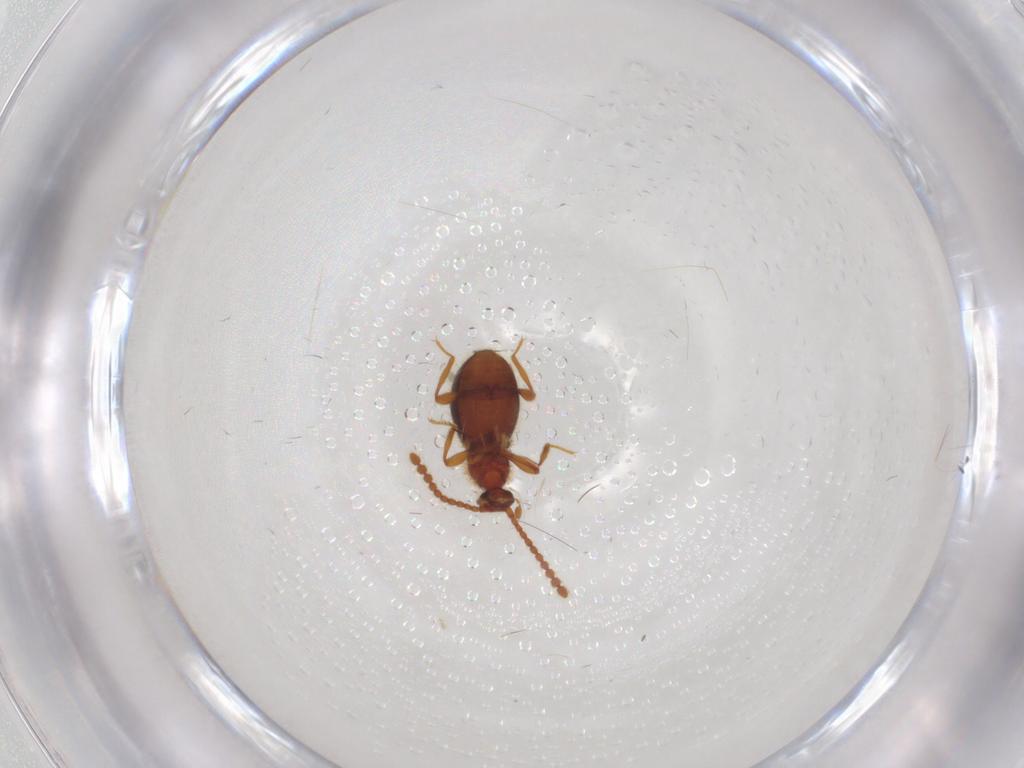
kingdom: Animalia
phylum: Arthropoda
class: Insecta
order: Coleoptera
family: Staphylinidae
